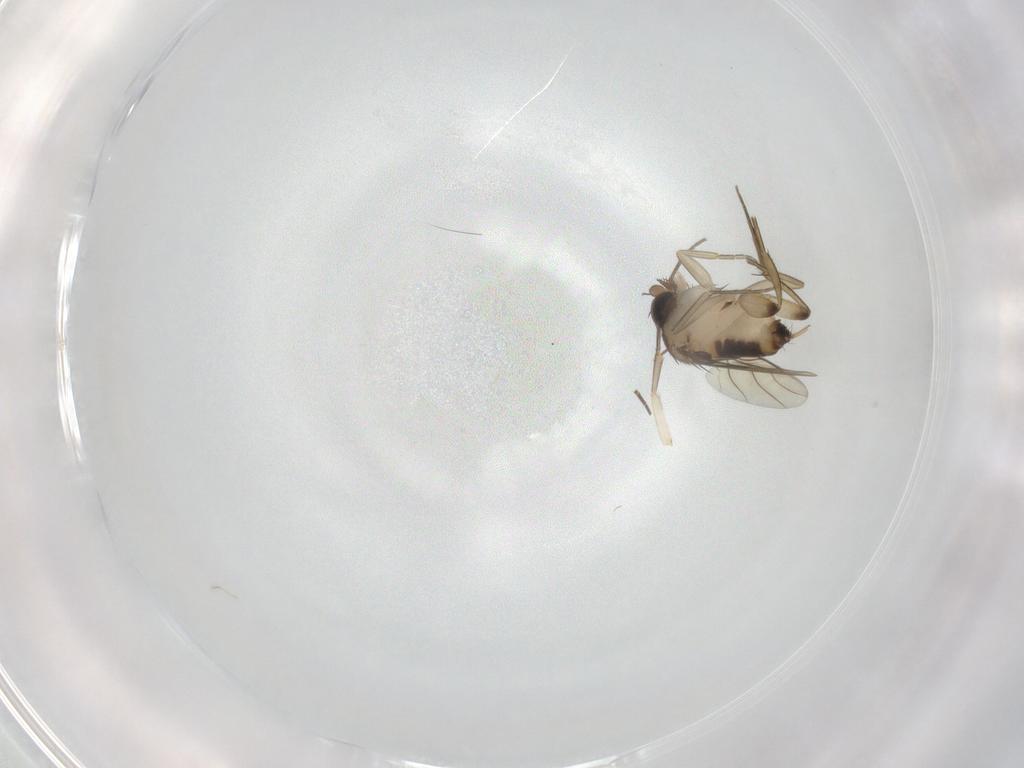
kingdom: Animalia
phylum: Arthropoda
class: Insecta
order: Diptera
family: Phoridae
